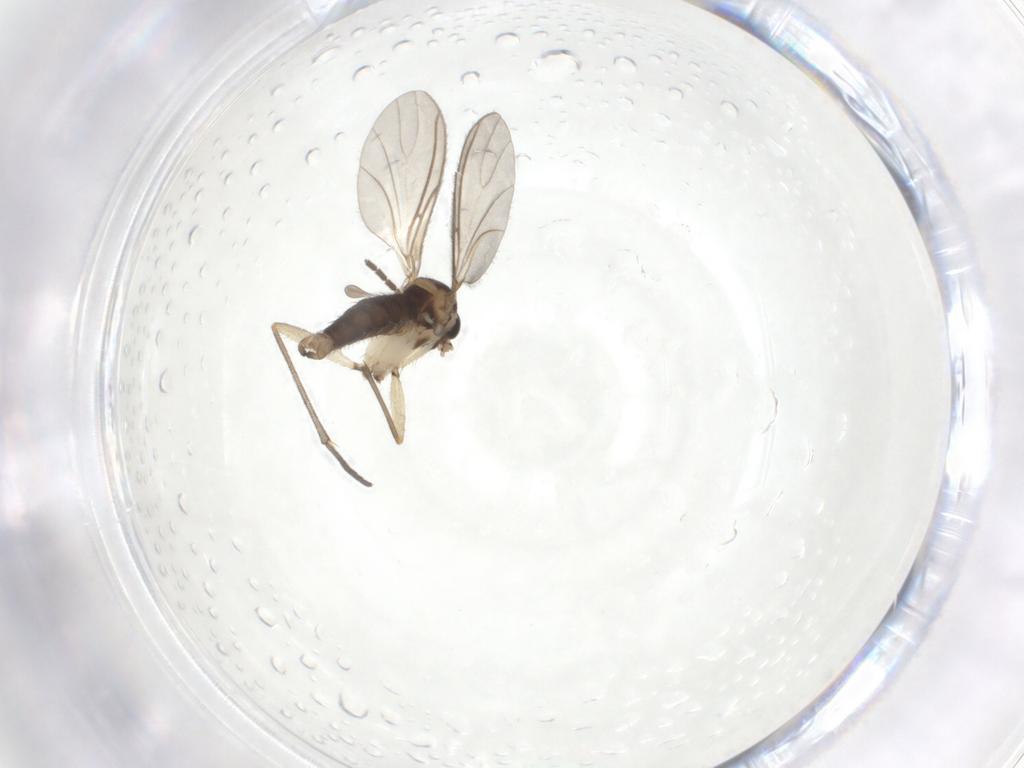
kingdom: Animalia
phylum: Arthropoda
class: Insecta
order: Diptera
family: Sciaridae
